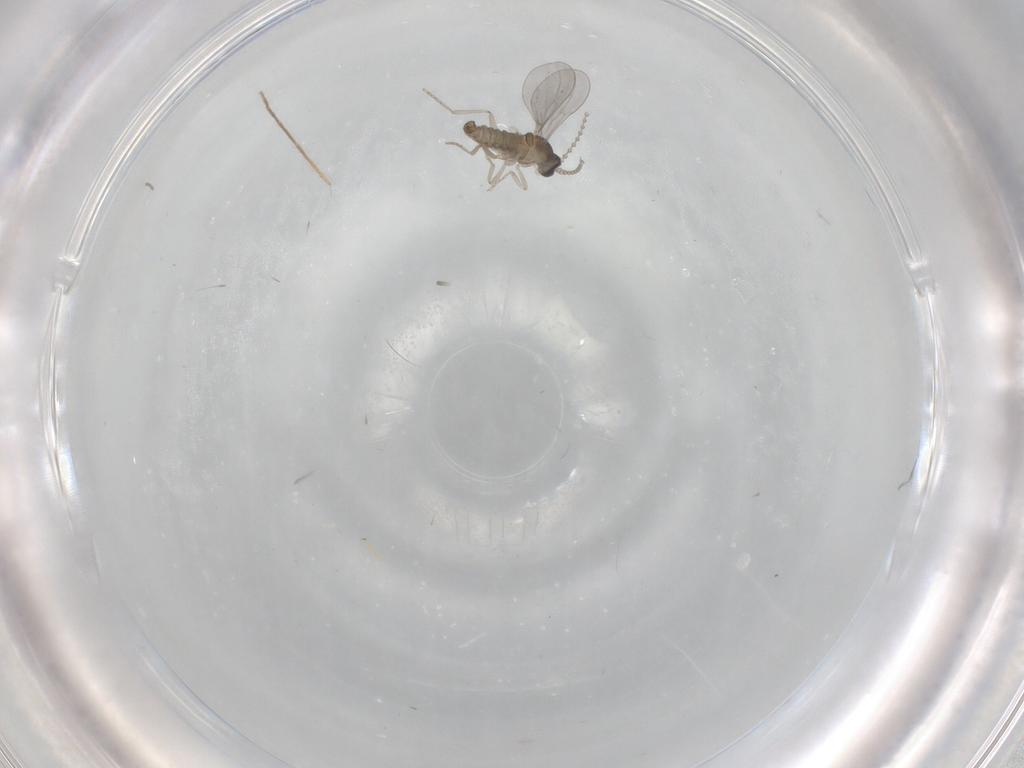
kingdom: Animalia
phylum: Arthropoda
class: Insecta
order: Diptera
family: Cecidomyiidae
